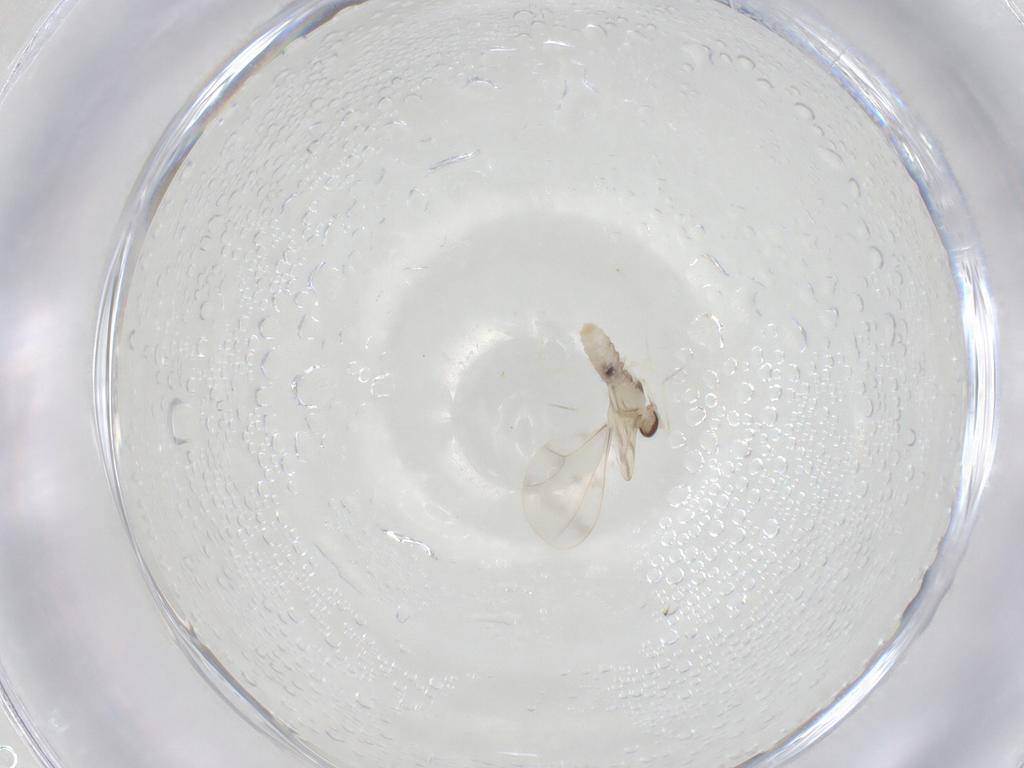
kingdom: Animalia
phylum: Arthropoda
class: Insecta
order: Diptera
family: Cecidomyiidae
